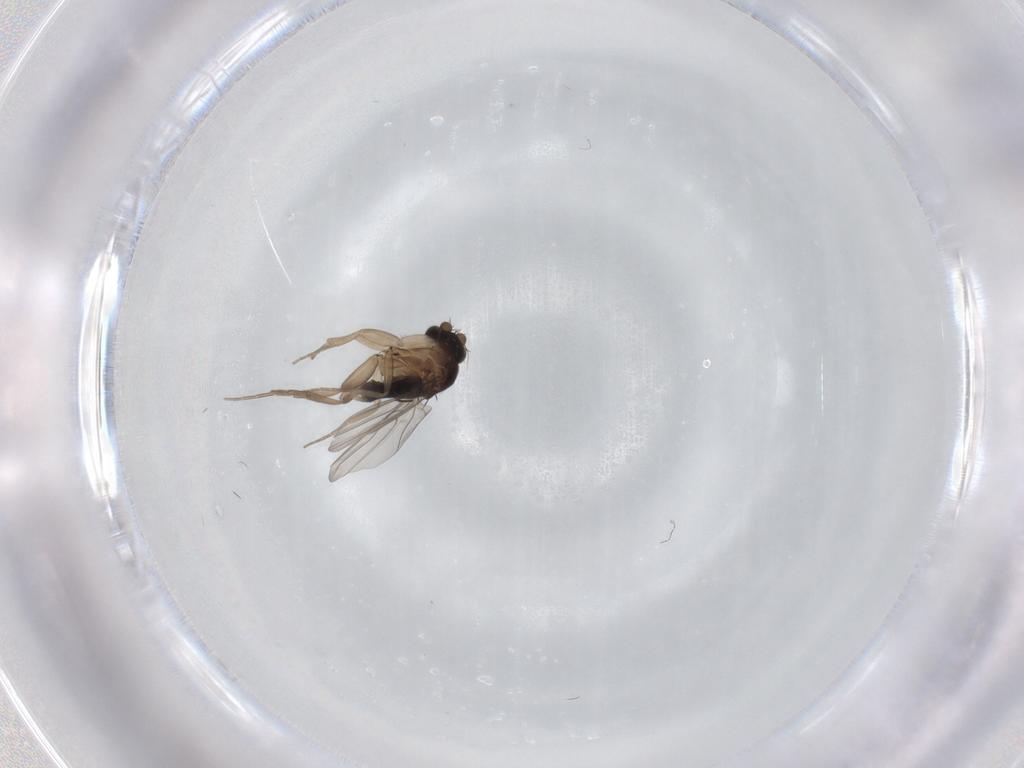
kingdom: Animalia
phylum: Arthropoda
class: Insecta
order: Diptera
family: Phoridae
